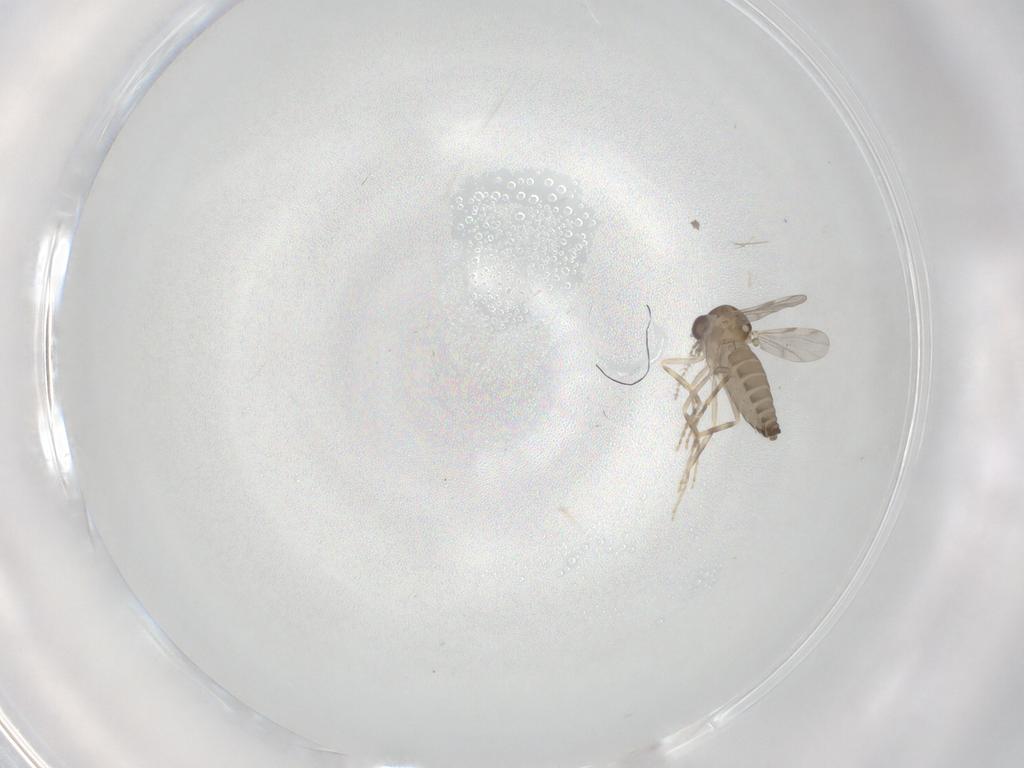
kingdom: Animalia
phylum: Arthropoda
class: Insecta
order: Diptera
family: Ceratopogonidae
